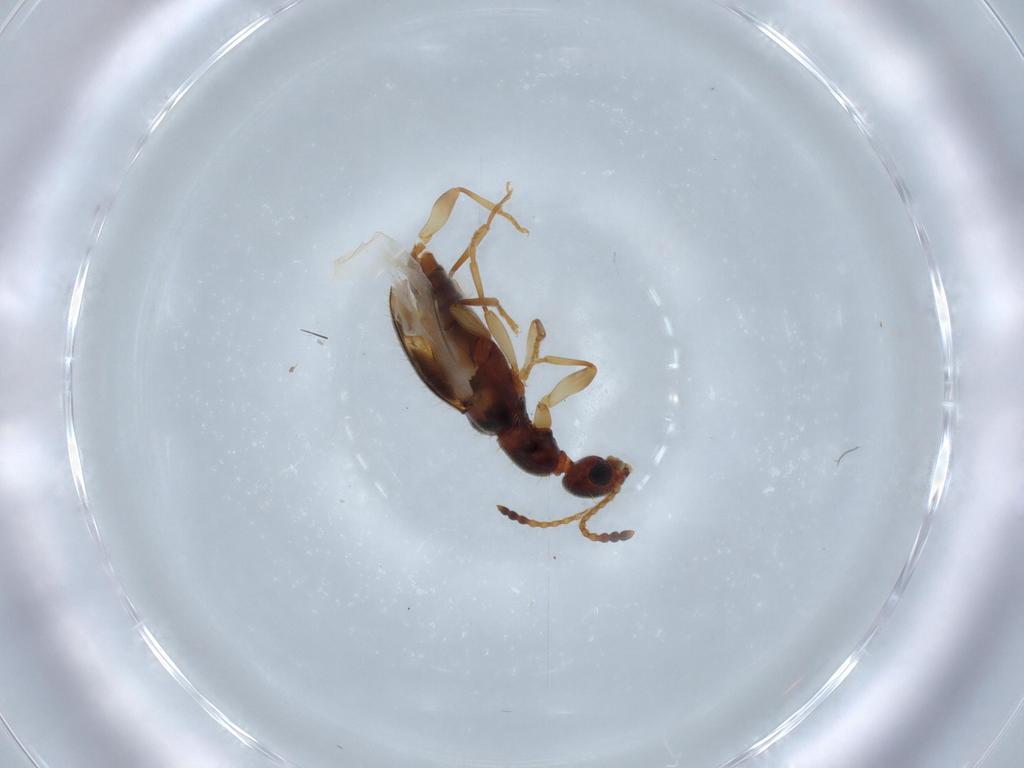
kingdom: Animalia
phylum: Arthropoda
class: Insecta
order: Coleoptera
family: Anthicidae
